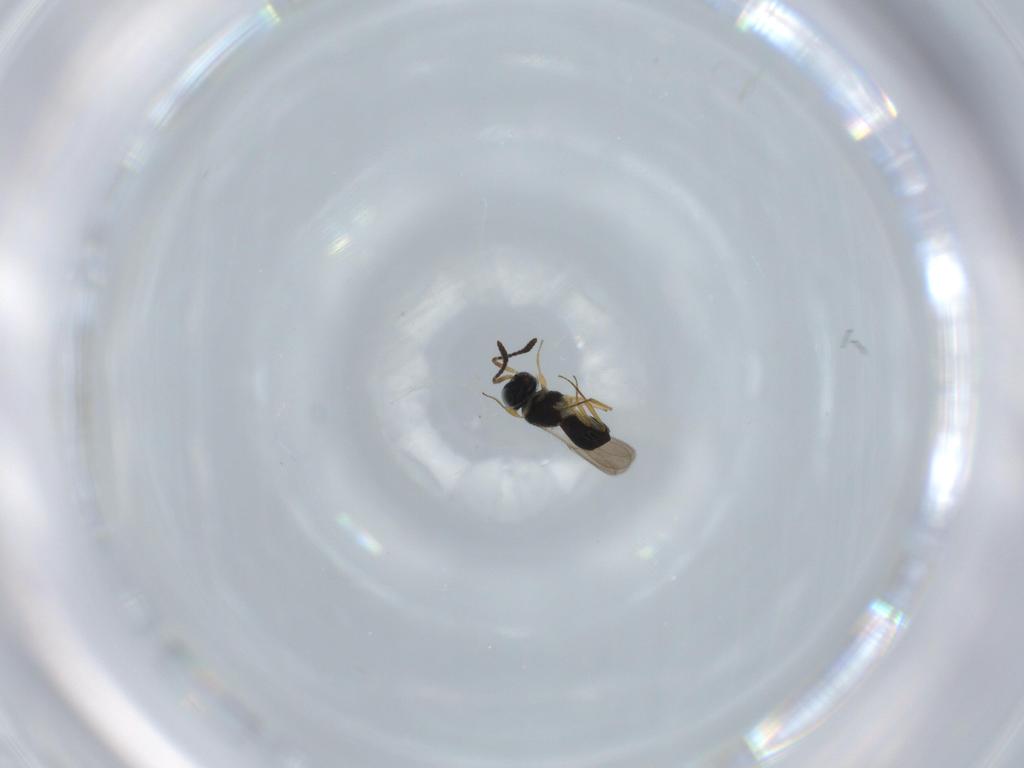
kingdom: Animalia
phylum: Arthropoda
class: Insecta
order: Hymenoptera
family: Scelionidae
